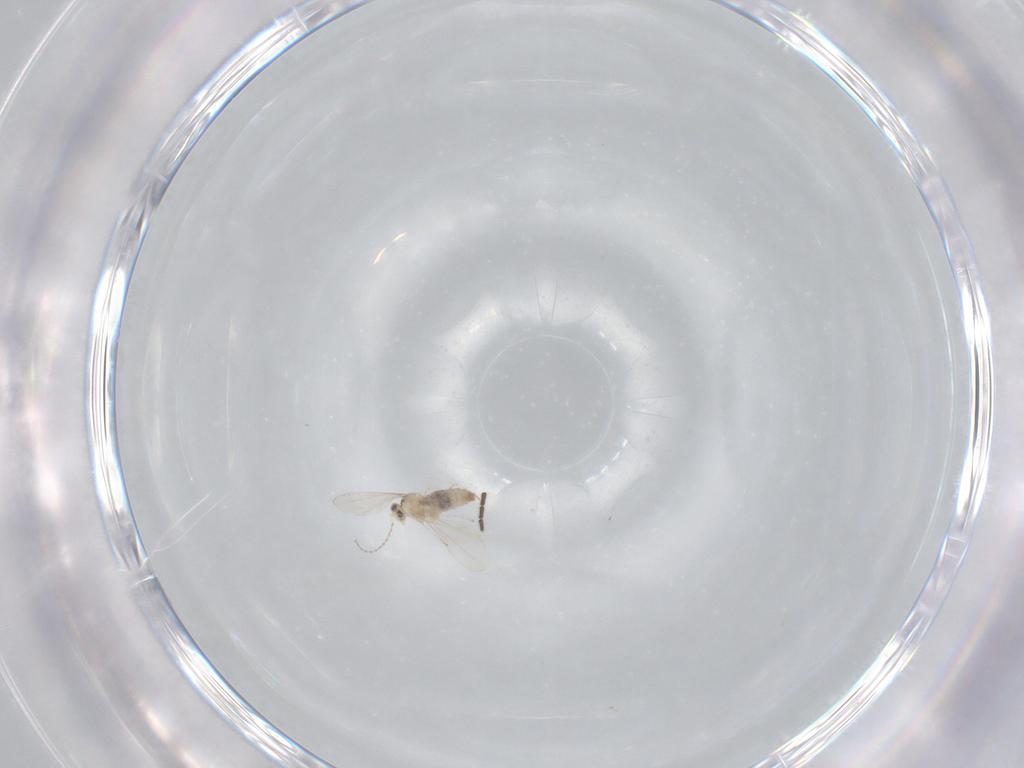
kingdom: Animalia
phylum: Arthropoda
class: Insecta
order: Diptera
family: Cecidomyiidae
